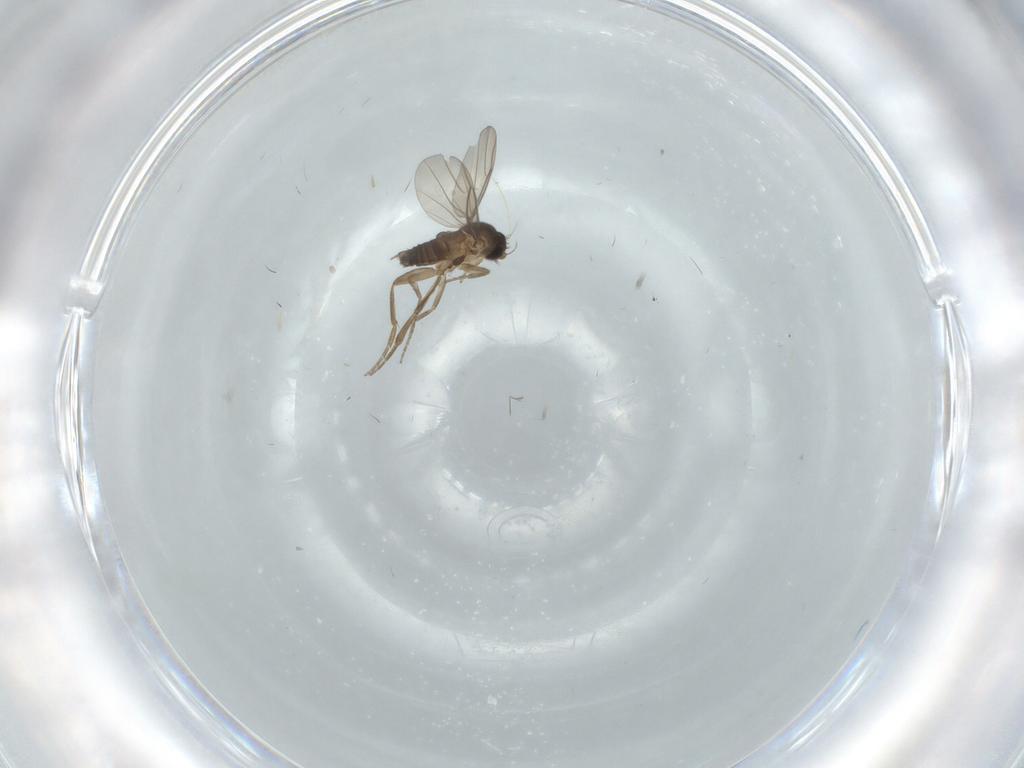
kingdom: Animalia
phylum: Arthropoda
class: Insecta
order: Diptera
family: Phoridae
